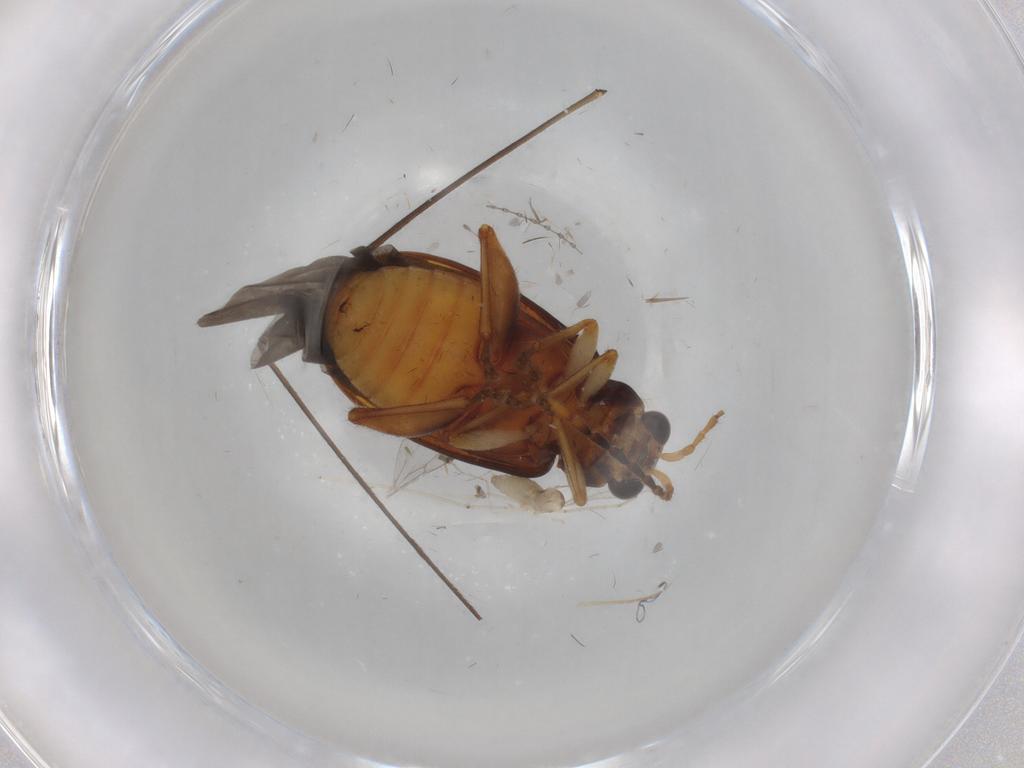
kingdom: Animalia
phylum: Arthropoda
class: Insecta
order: Coleoptera
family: Chrysomelidae
